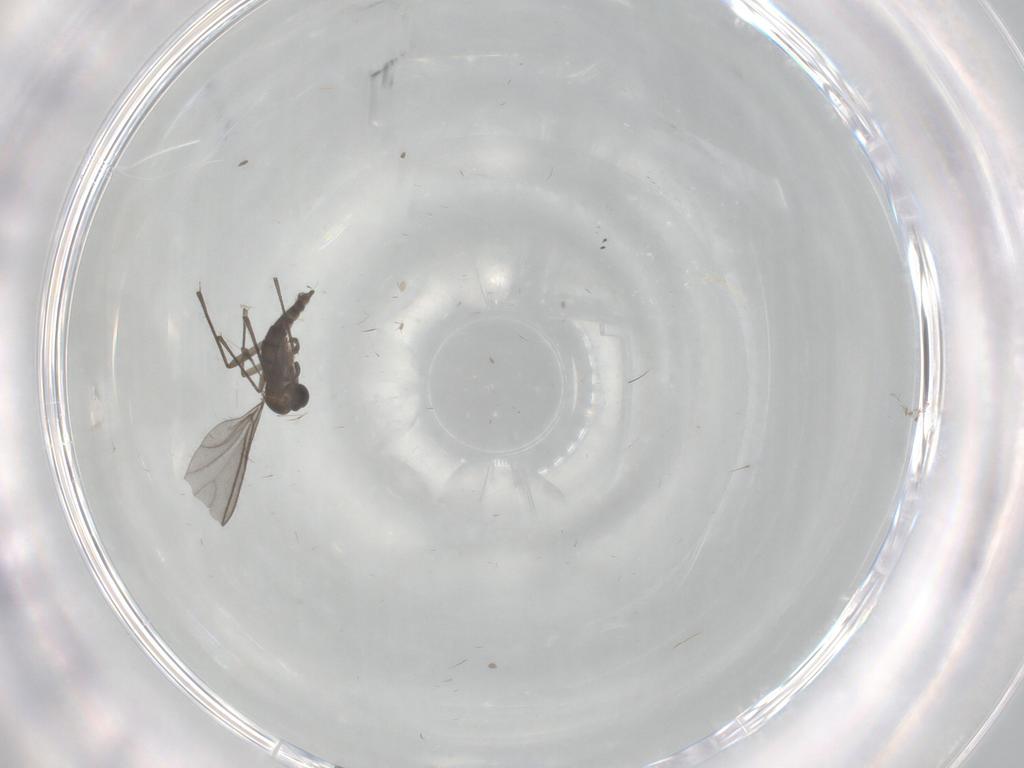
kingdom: Animalia
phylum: Arthropoda
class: Insecta
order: Diptera
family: Sciaridae
